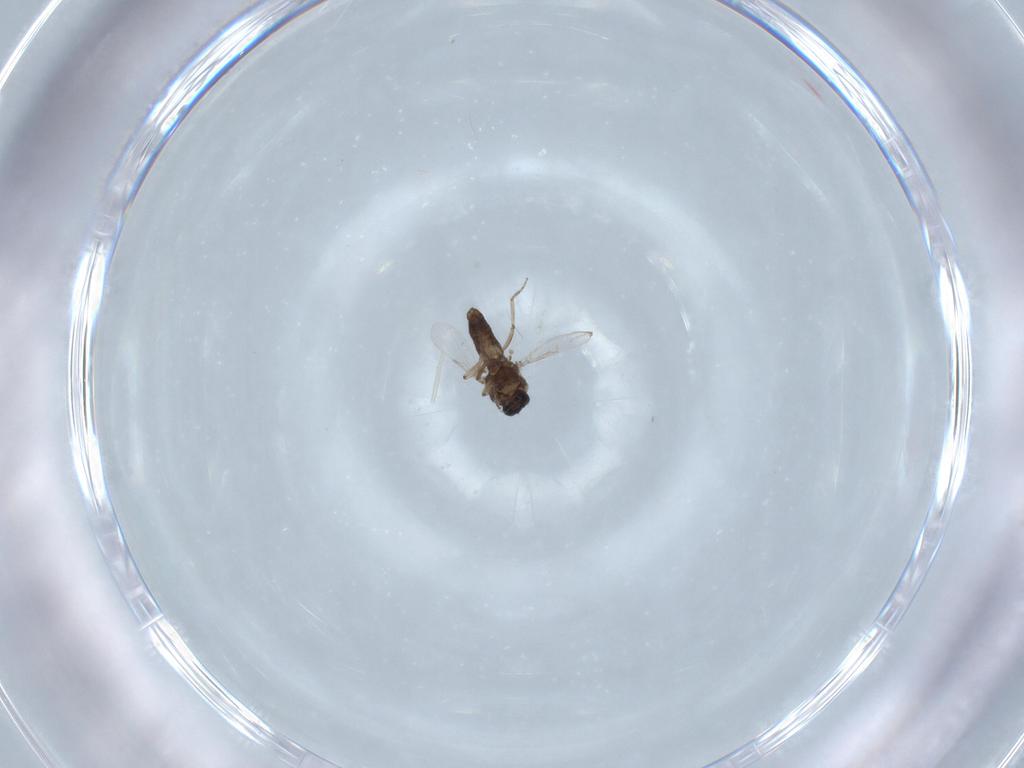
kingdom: Animalia
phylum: Arthropoda
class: Insecta
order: Diptera
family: Ceratopogonidae
